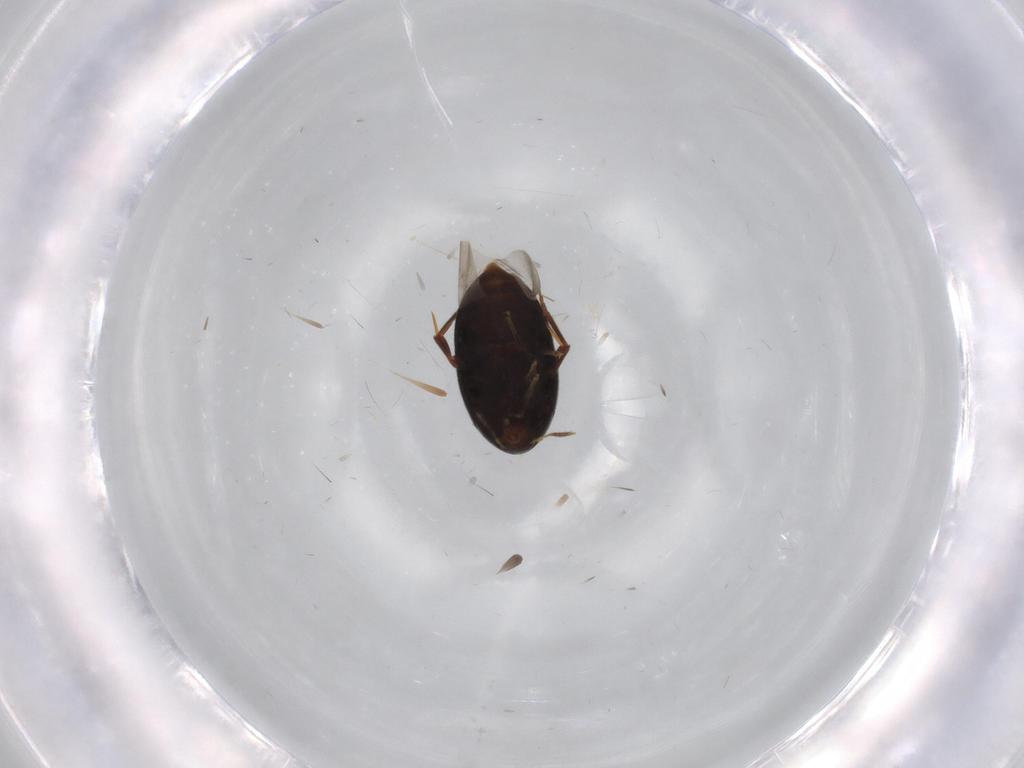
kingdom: Animalia
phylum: Arthropoda
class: Insecta
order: Coleoptera
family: Melandryidae
